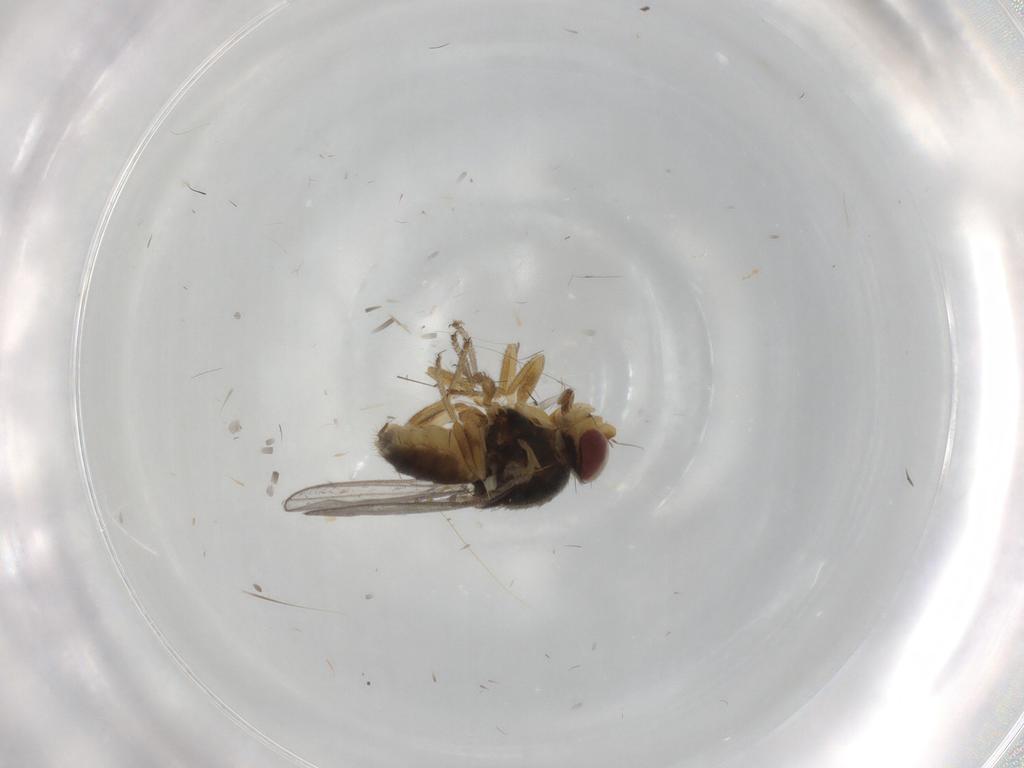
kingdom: Animalia
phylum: Arthropoda
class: Insecta
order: Diptera
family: Chloropidae
